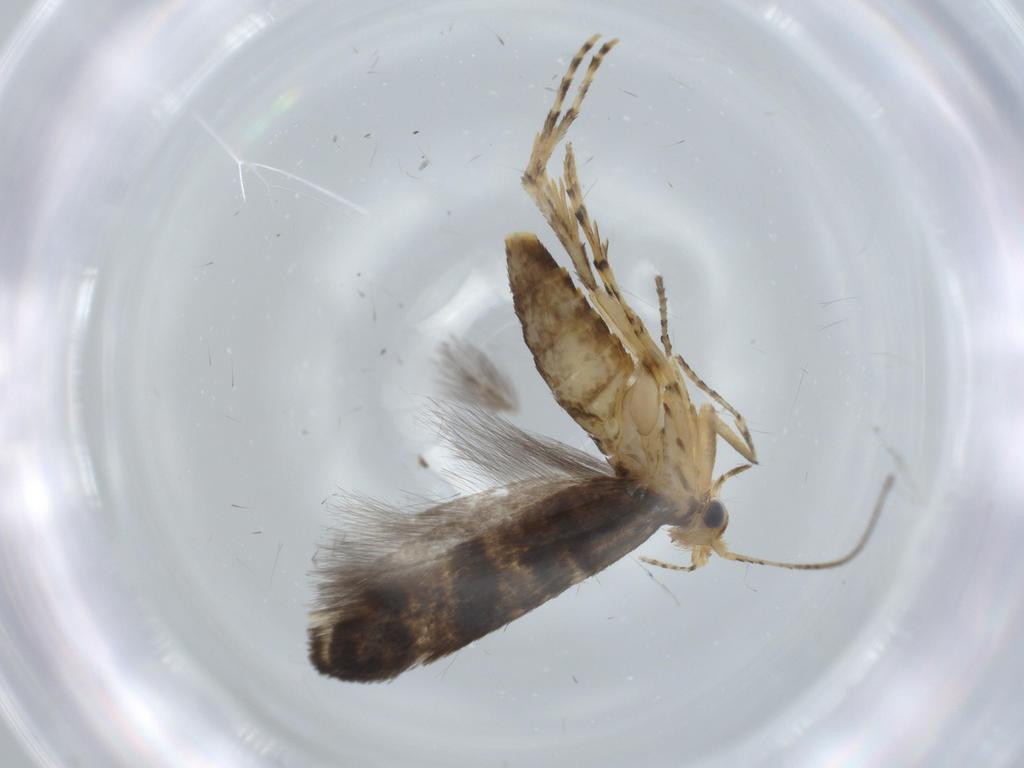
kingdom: Animalia
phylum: Arthropoda
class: Insecta
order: Lepidoptera
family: Argyresthiidae
